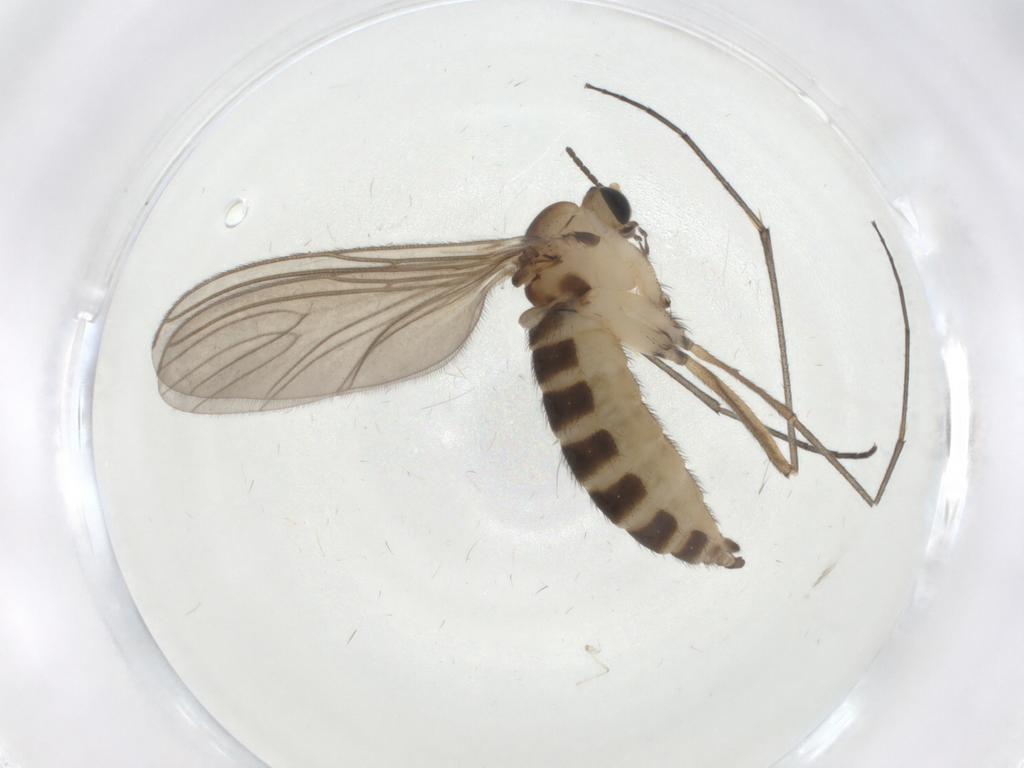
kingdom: Animalia
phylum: Arthropoda
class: Insecta
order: Diptera
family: Sciaridae
